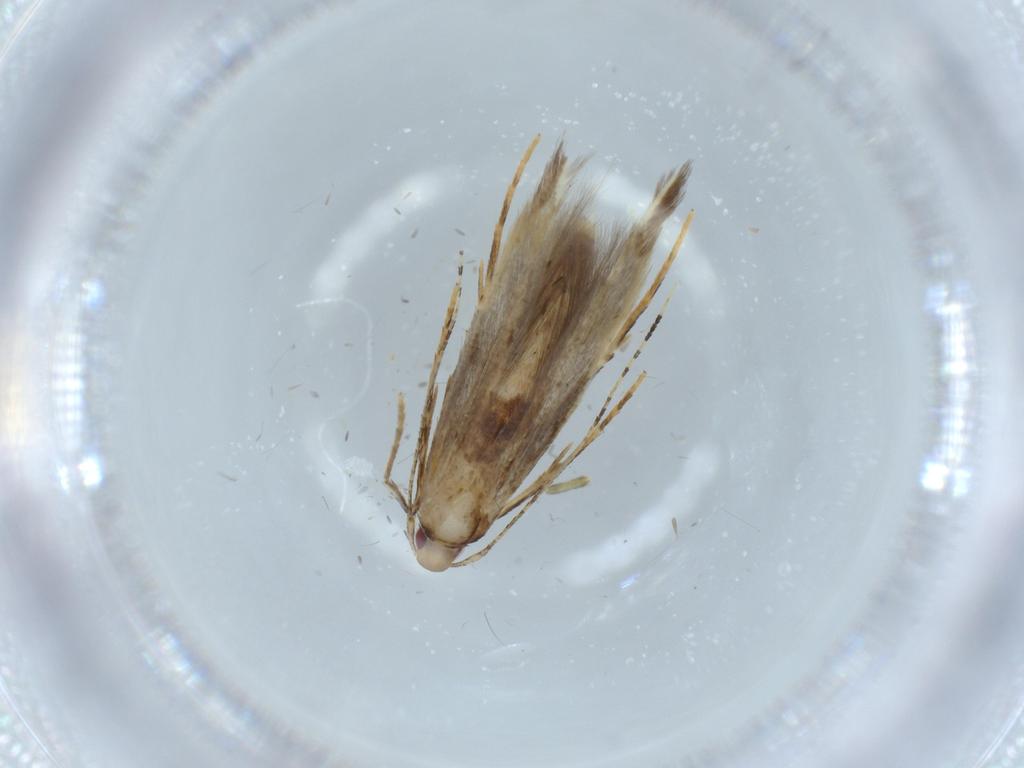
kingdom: Animalia
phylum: Arthropoda
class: Insecta
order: Lepidoptera
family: Cosmopterigidae
